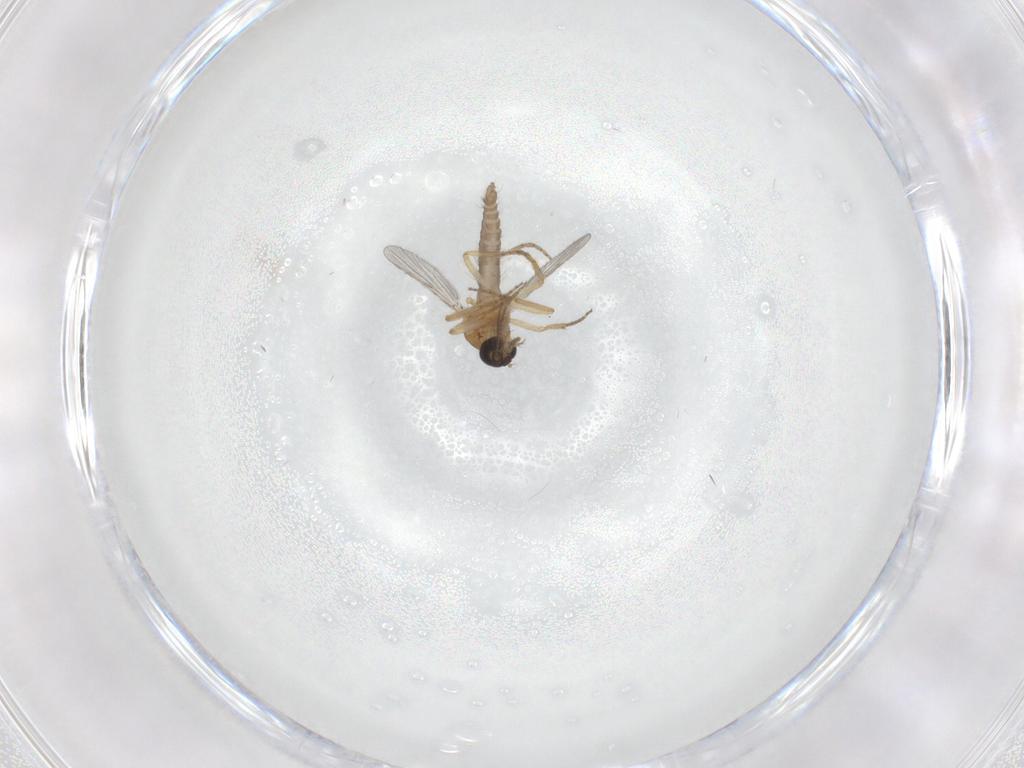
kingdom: Animalia
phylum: Arthropoda
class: Insecta
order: Diptera
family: Ceratopogonidae
